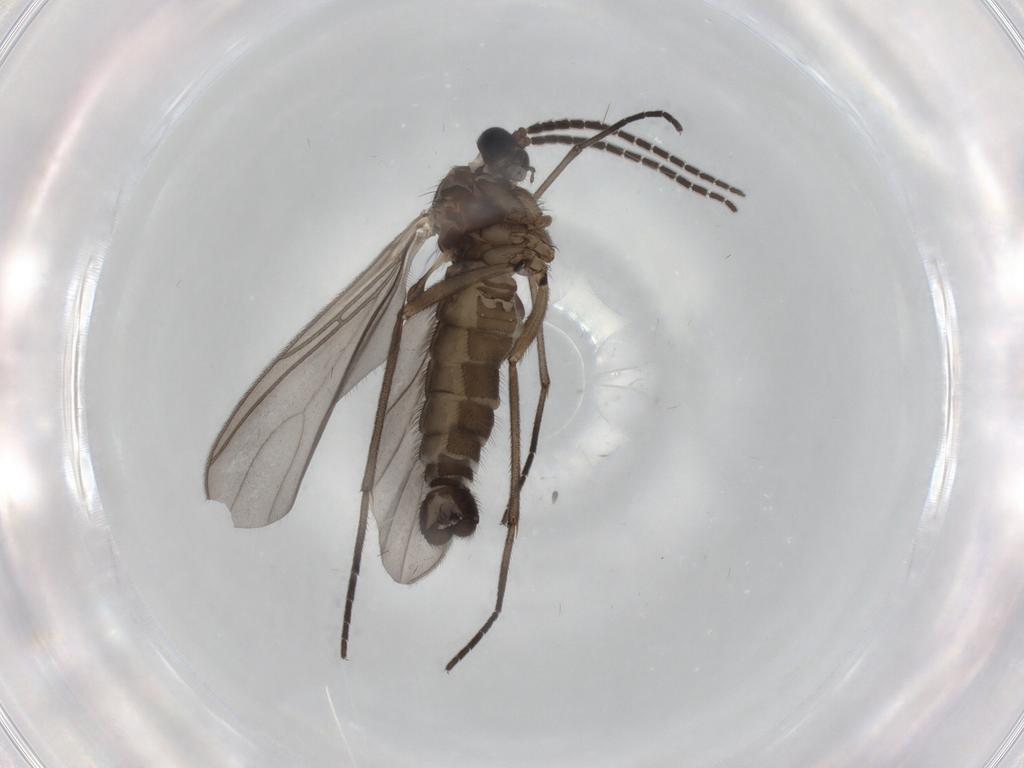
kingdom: Animalia
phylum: Arthropoda
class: Insecta
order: Diptera
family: Sciaridae
